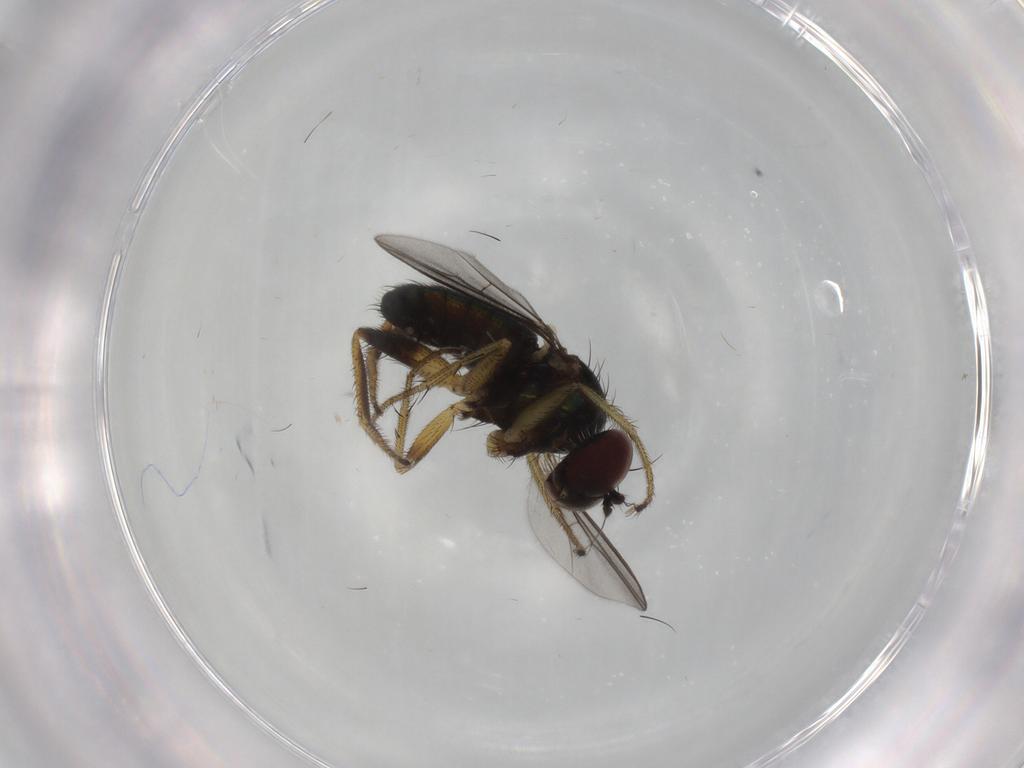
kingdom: Animalia
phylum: Arthropoda
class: Insecta
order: Diptera
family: Dolichopodidae
